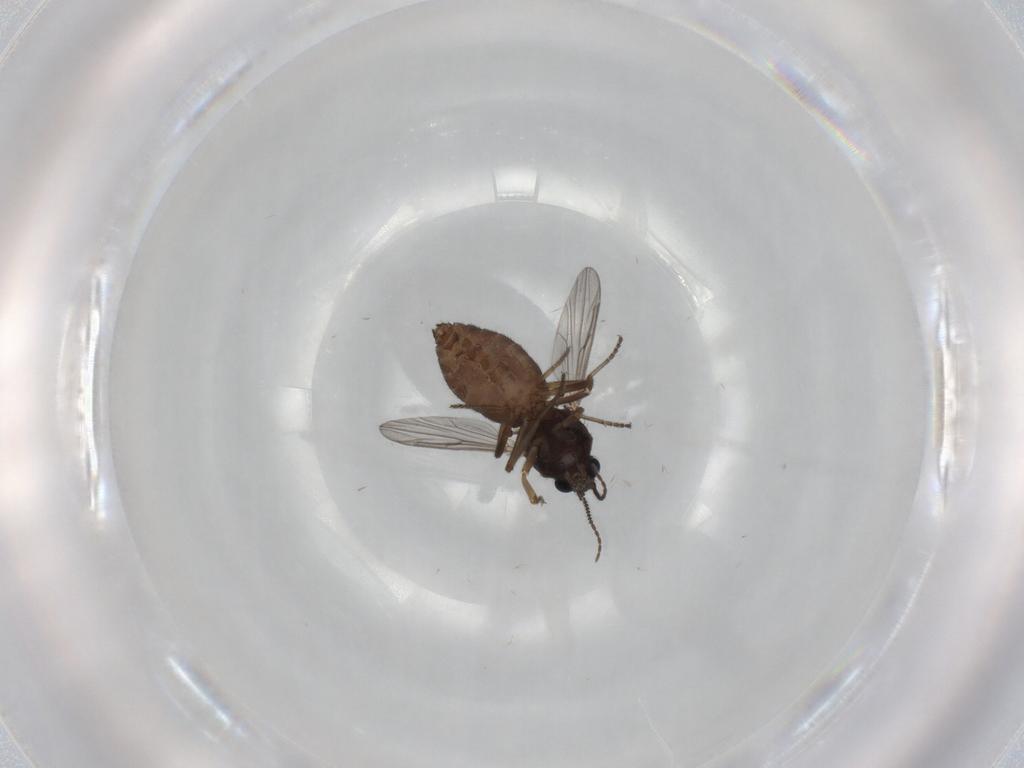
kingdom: Animalia
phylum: Arthropoda
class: Insecta
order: Diptera
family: Ceratopogonidae
